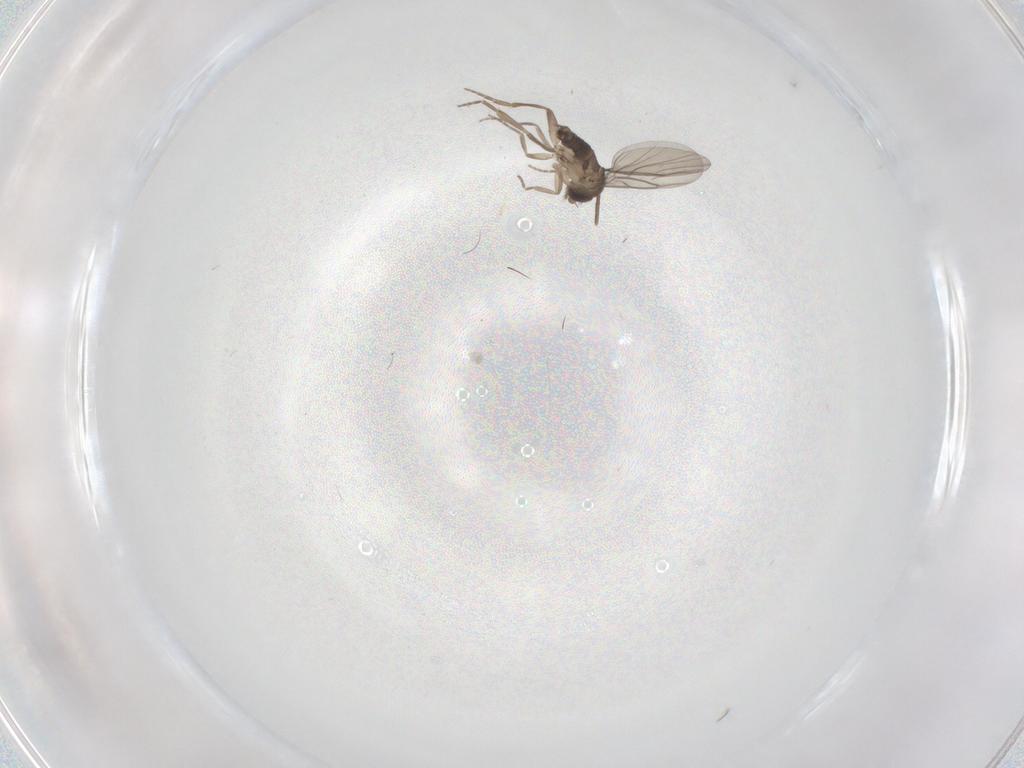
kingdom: Animalia
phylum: Arthropoda
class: Insecta
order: Diptera
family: Phoridae
